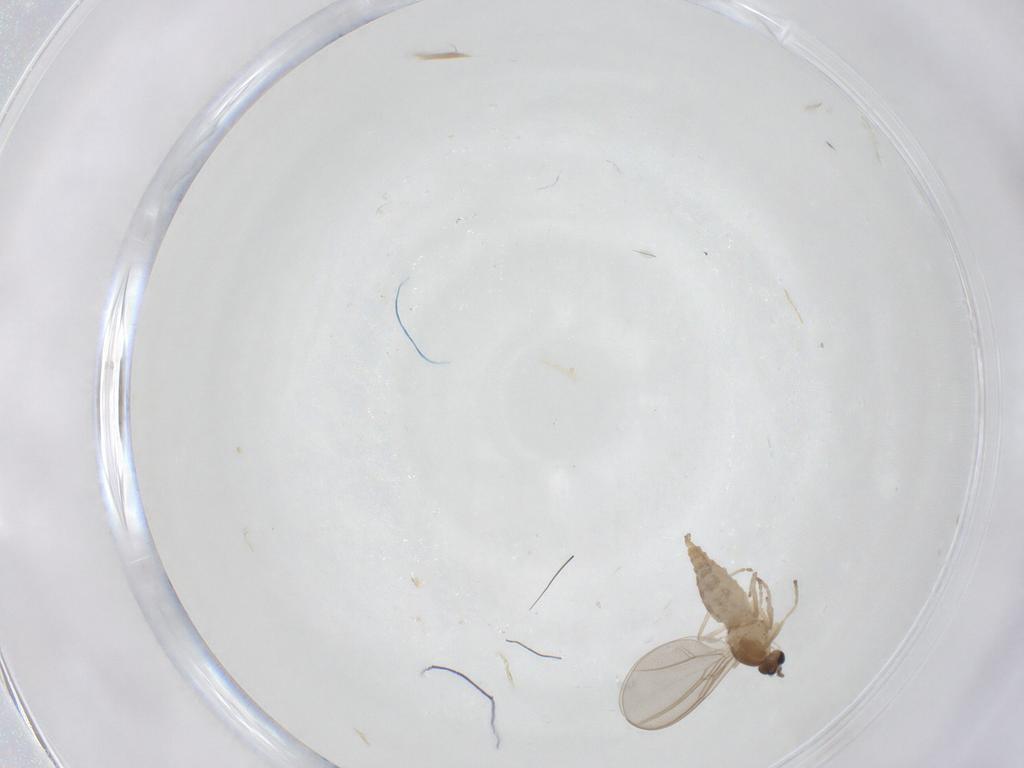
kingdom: Animalia
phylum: Arthropoda
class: Insecta
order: Diptera
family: Cecidomyiidae
